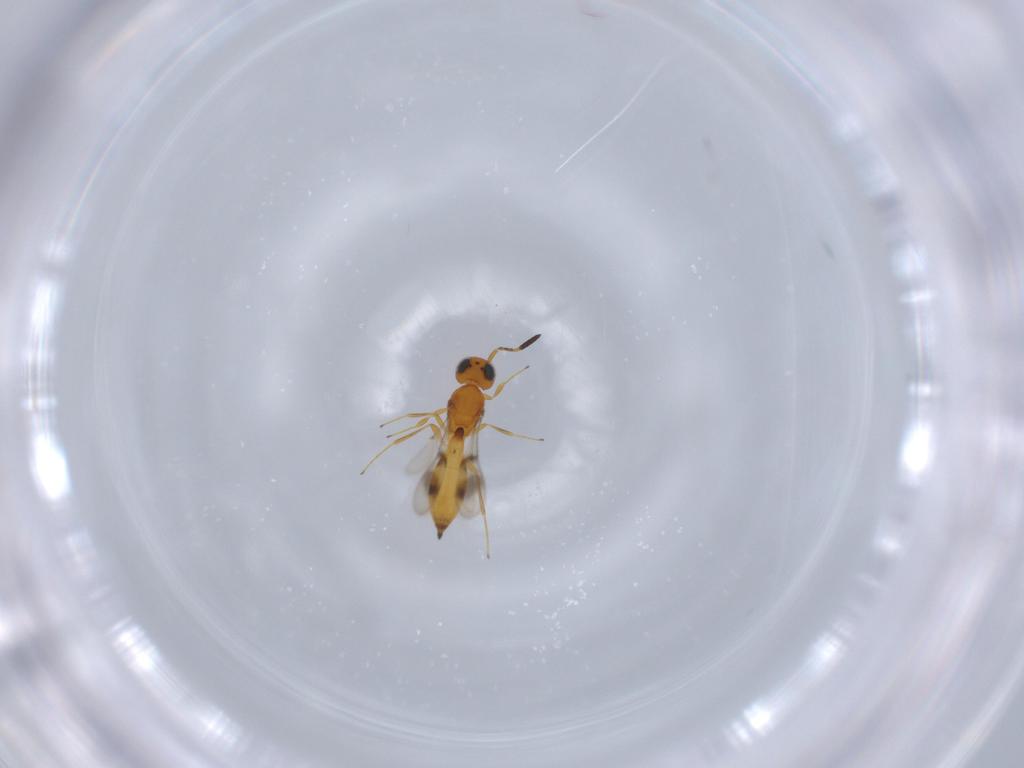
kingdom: Animalia
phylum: Arthropoda
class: Insecta
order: Hymenoptera
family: Scelionidae
